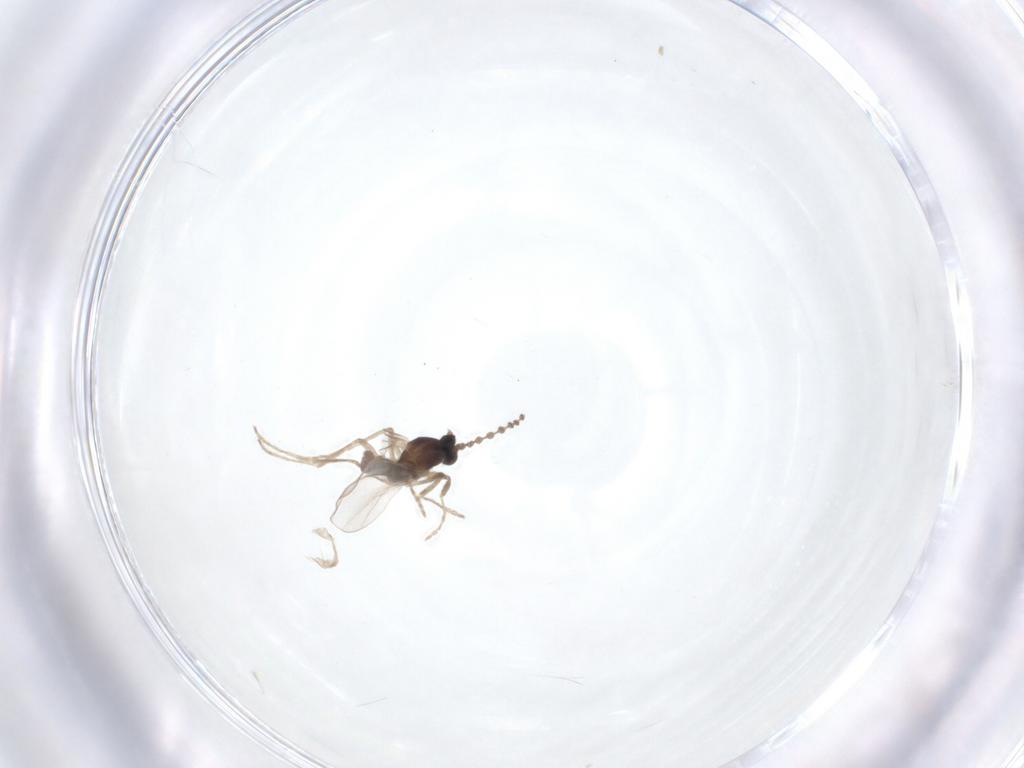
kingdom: Animalia
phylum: Arthropoda
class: Insecta
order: Diptera
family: Cecidomyiidae
